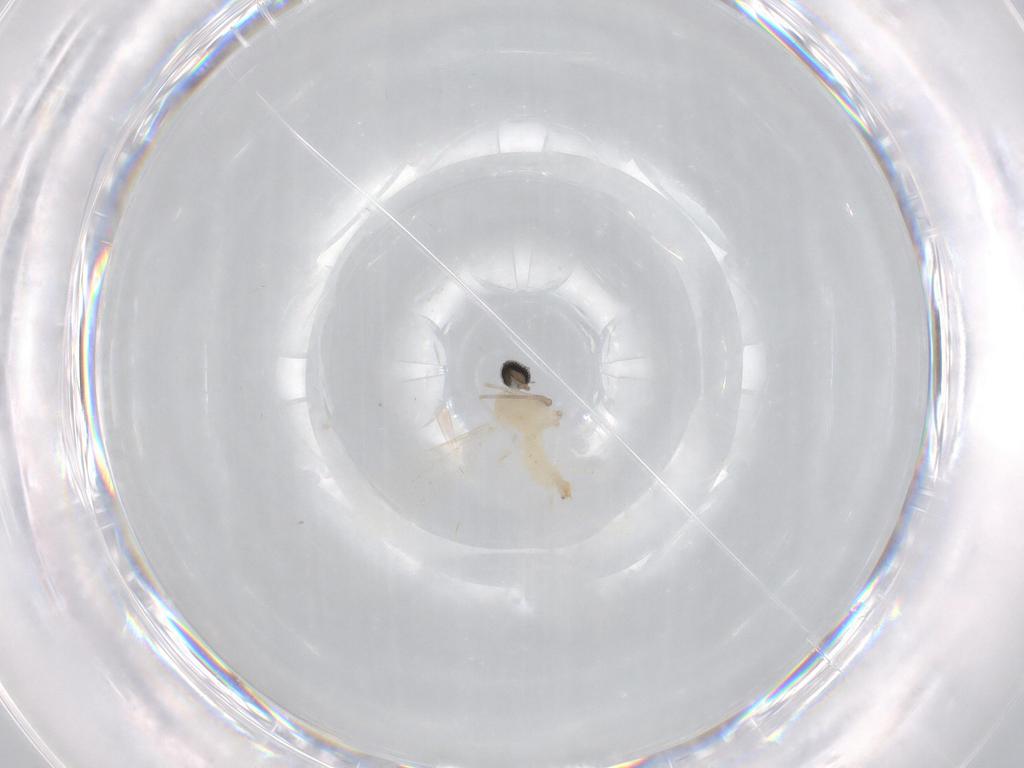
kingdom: Animalia
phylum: Arthropoda
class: Insecta
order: Diptera
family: Cecidomyiidae
